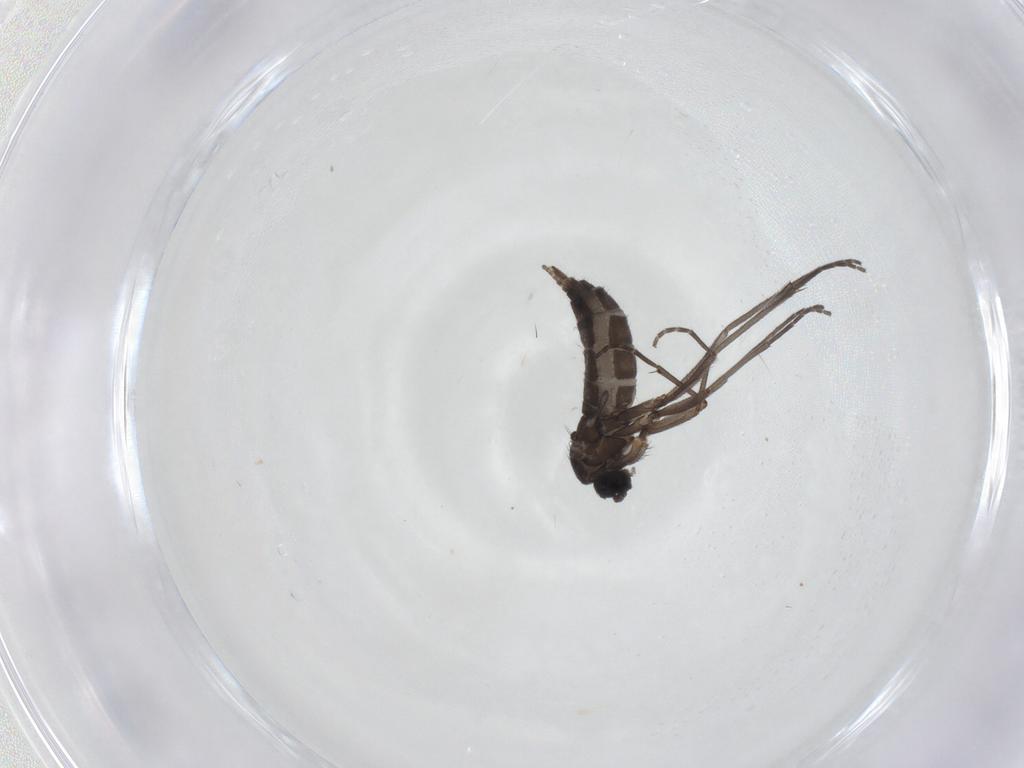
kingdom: Animalia
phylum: Arthropoda
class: Insecta
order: Diptera
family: Sciaridae
